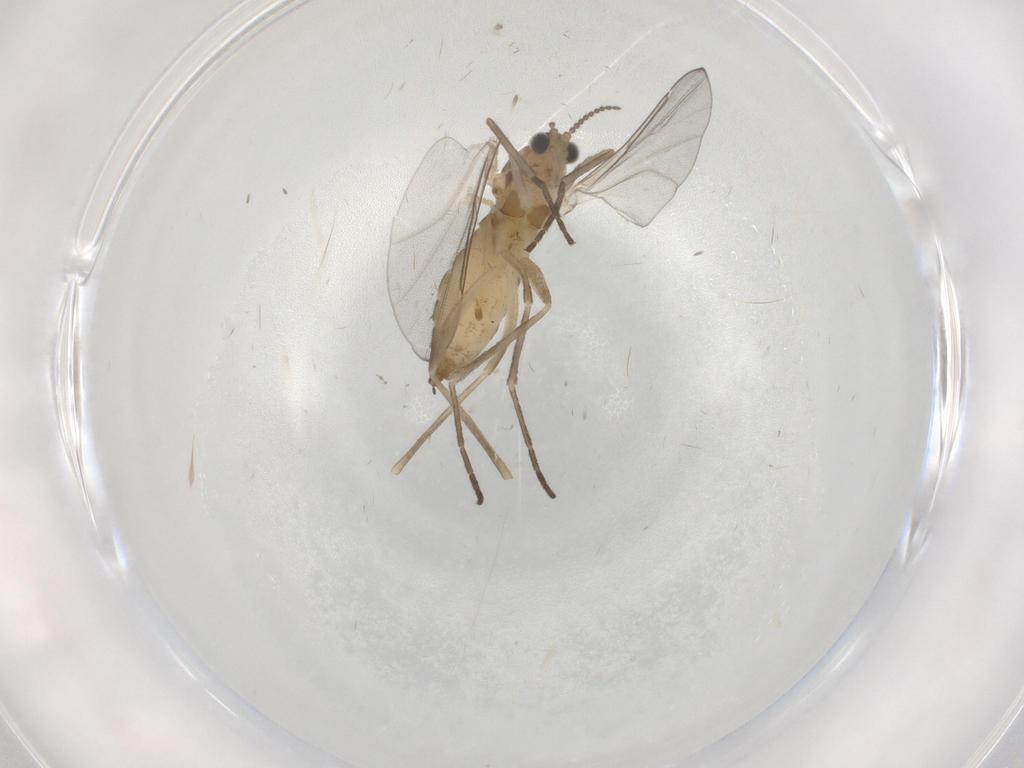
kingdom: Animalia
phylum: Arthropoda
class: Insecta
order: Diptera
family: Cecidomyiidae
